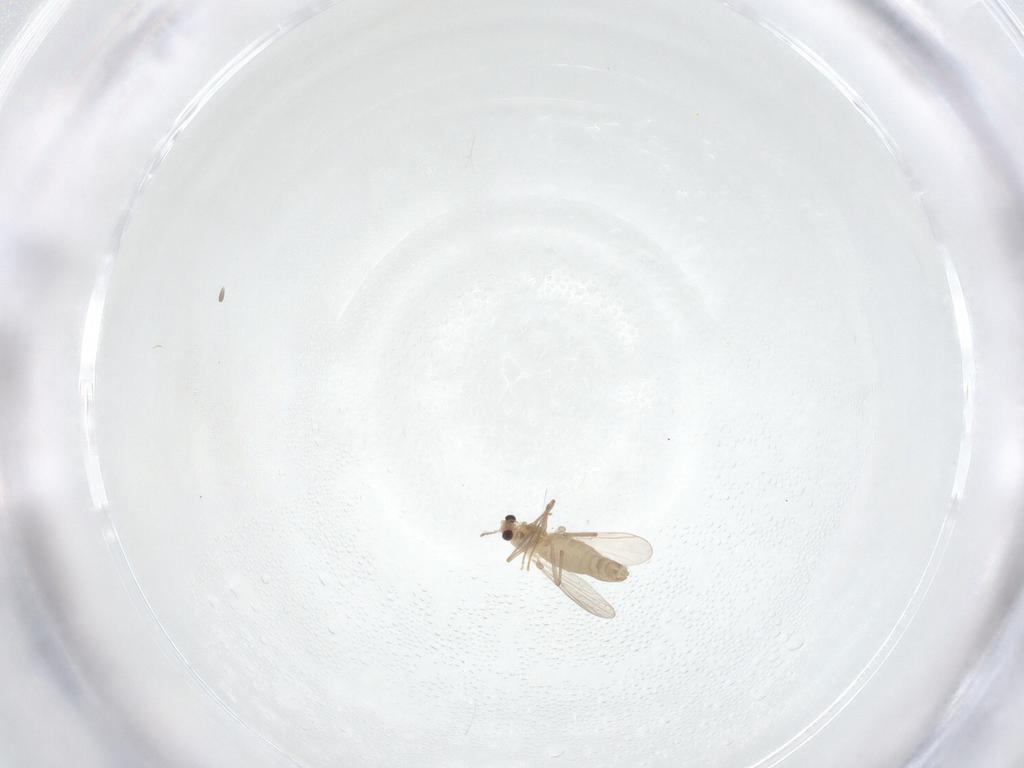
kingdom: Animalia
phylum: Arthropoda
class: Insecta
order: Diptera
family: Chironomidae
